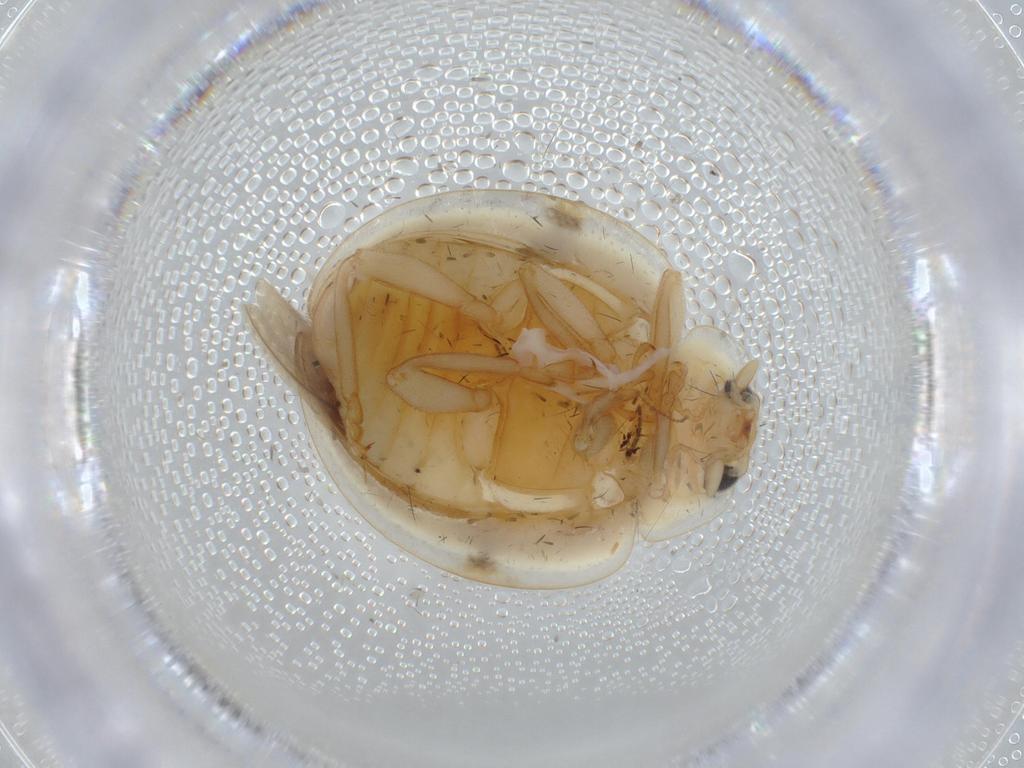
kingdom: Animalia
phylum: Arthropoda
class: Insecta
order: Coleoptera
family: Coccinellidae
